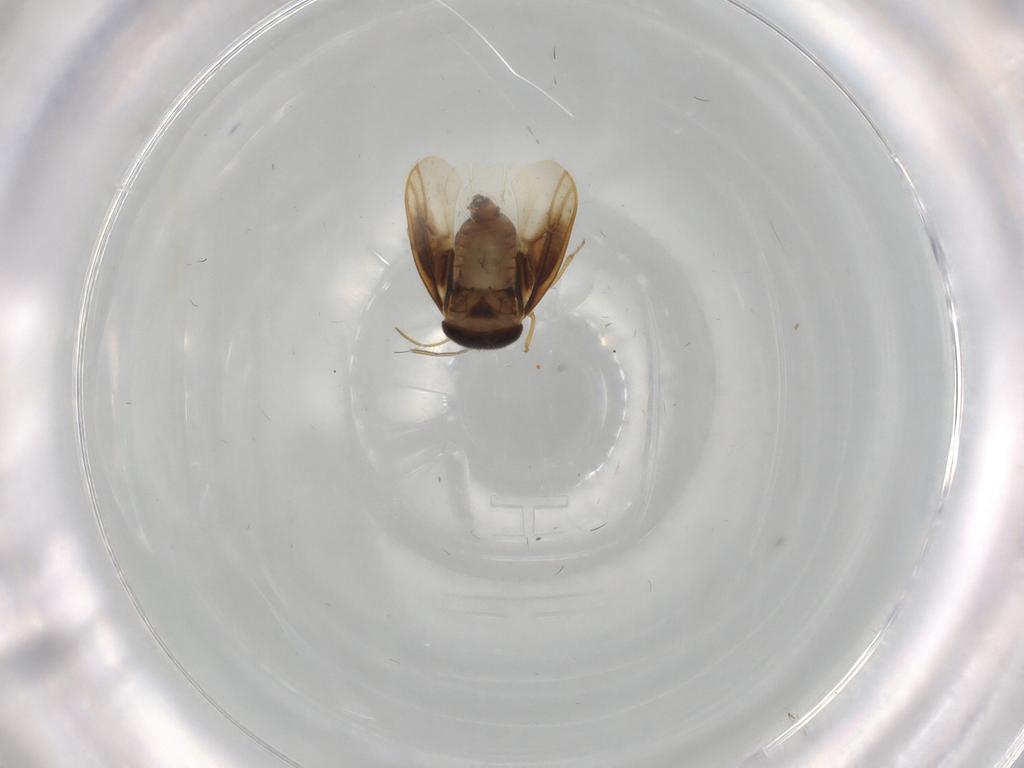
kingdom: Animalia
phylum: Arthropoda
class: Insecta
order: Hemiptera
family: Schizopteridae
